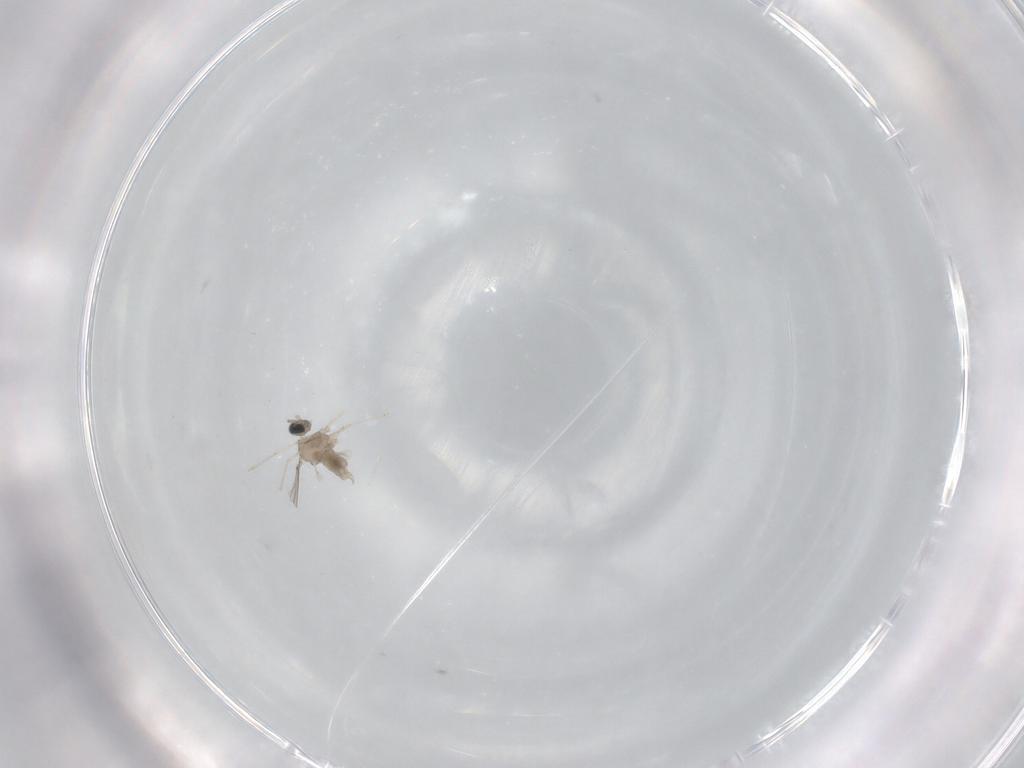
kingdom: Animalia
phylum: Arthropoda
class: Insecta
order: Diptera
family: Cecidomyiidae
